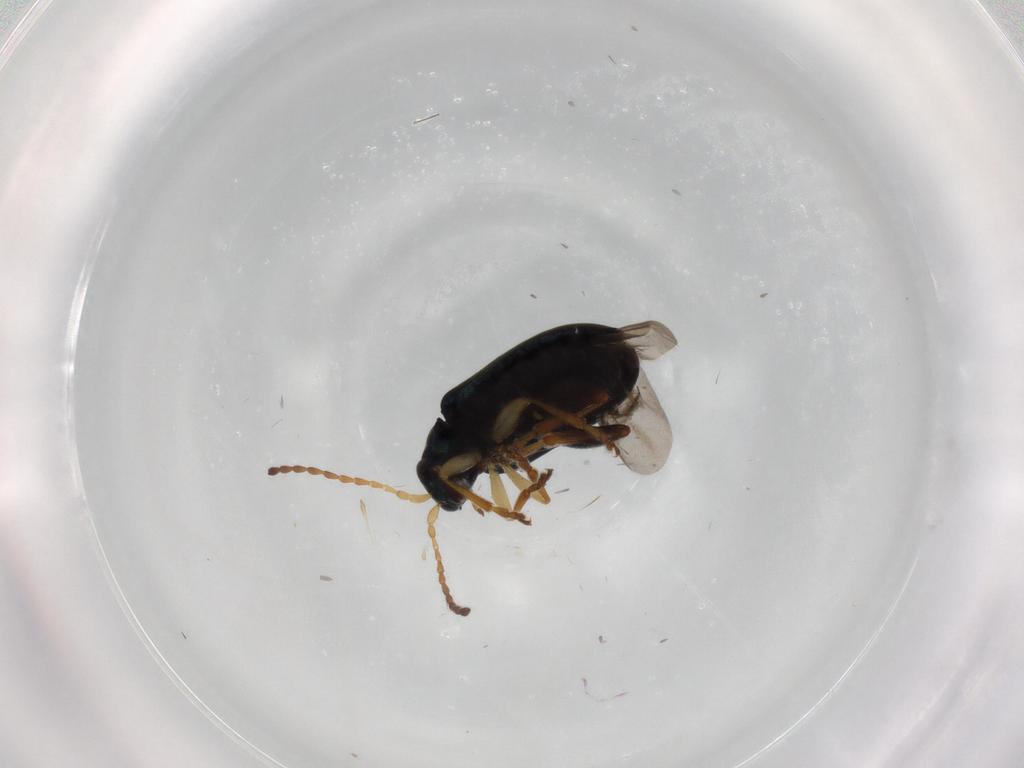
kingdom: Animalia
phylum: Arthropoda
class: Insecta
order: Coleoptera
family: Chrysomelidae
